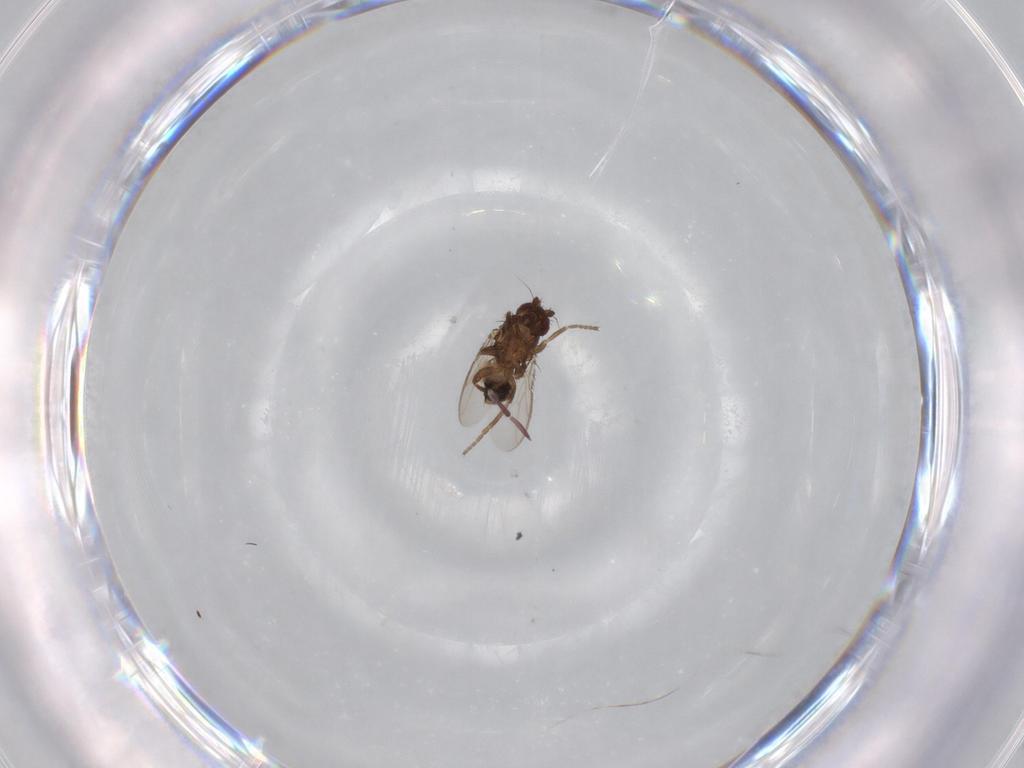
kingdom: Animalia
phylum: Arthropoda
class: Insecta
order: Diptera
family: Sphaeroceridae
